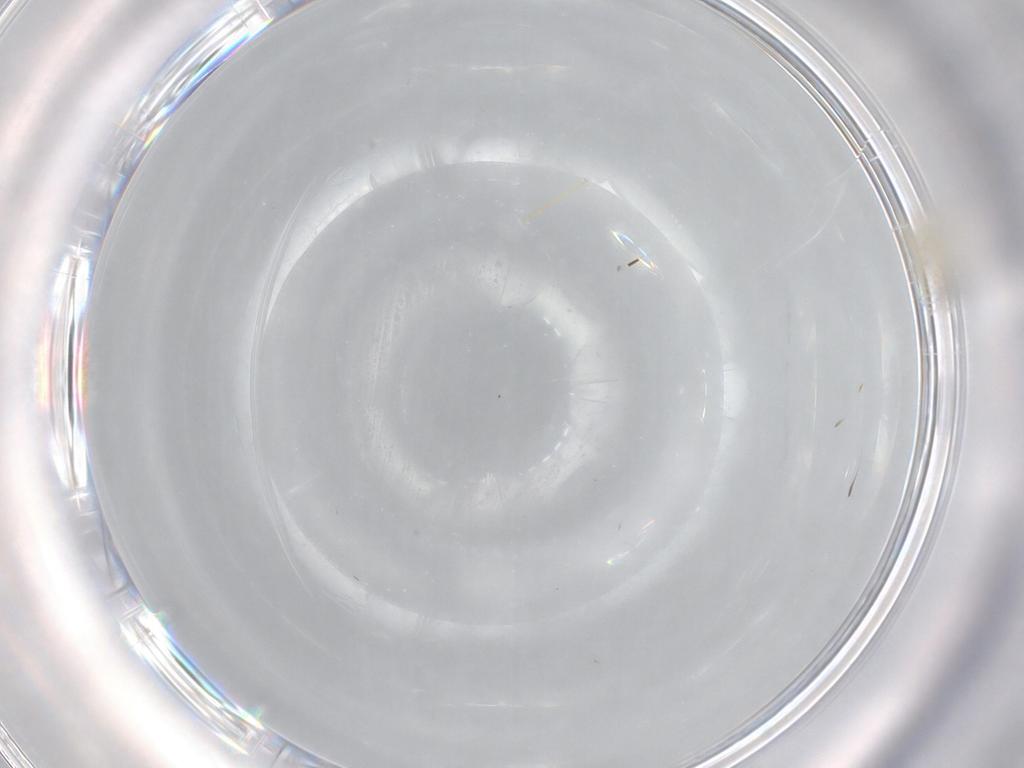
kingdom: Animalia
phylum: Arthropoda
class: Insecta
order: Diptera
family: Cecidomyiidae
